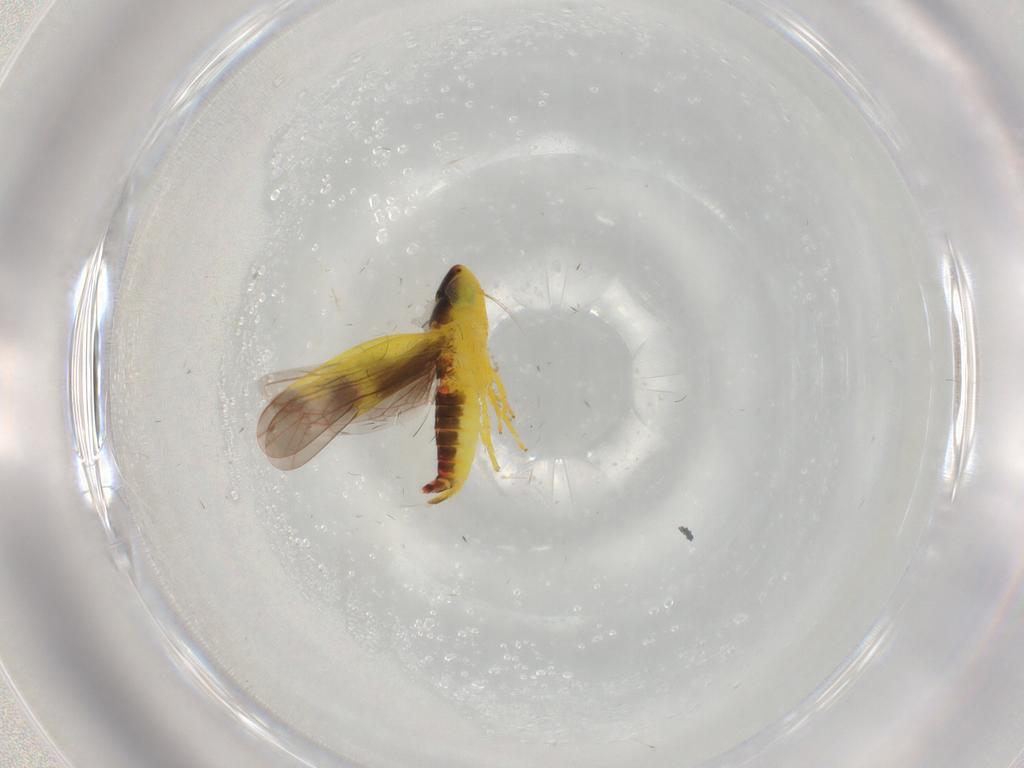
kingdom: Animalia
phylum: Arthropoda
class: Insecta
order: Hemiptera
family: Cicadellidae
